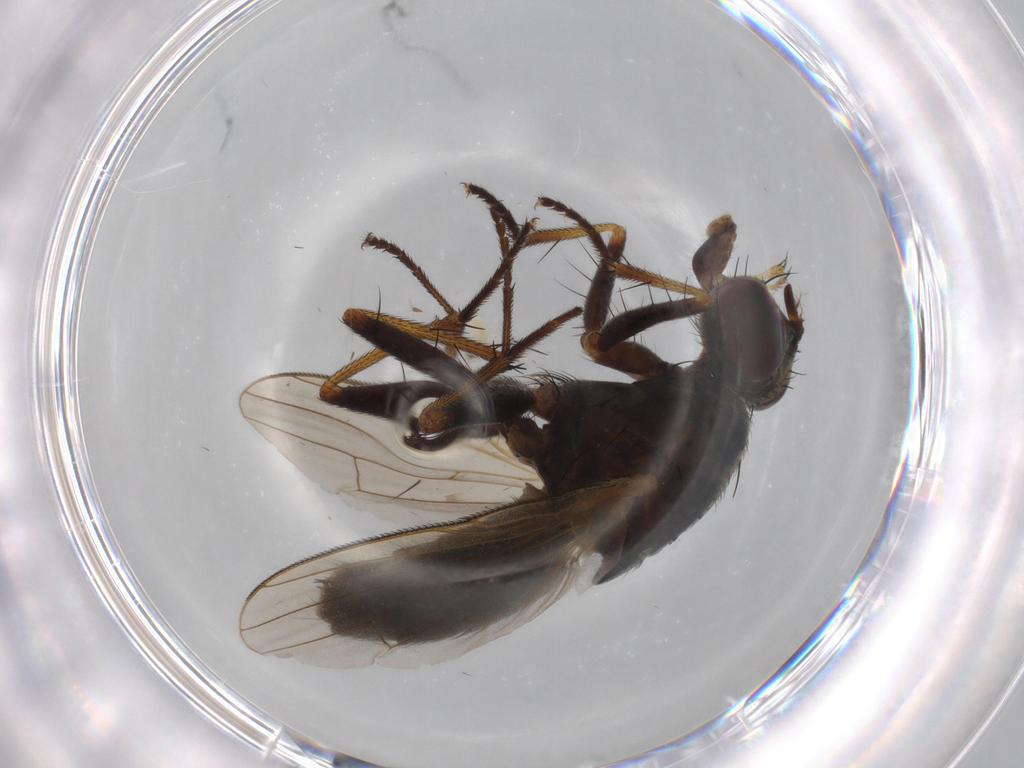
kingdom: Animalia
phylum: Arthropoda
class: Insecta
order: Diptera
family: Muscidae
